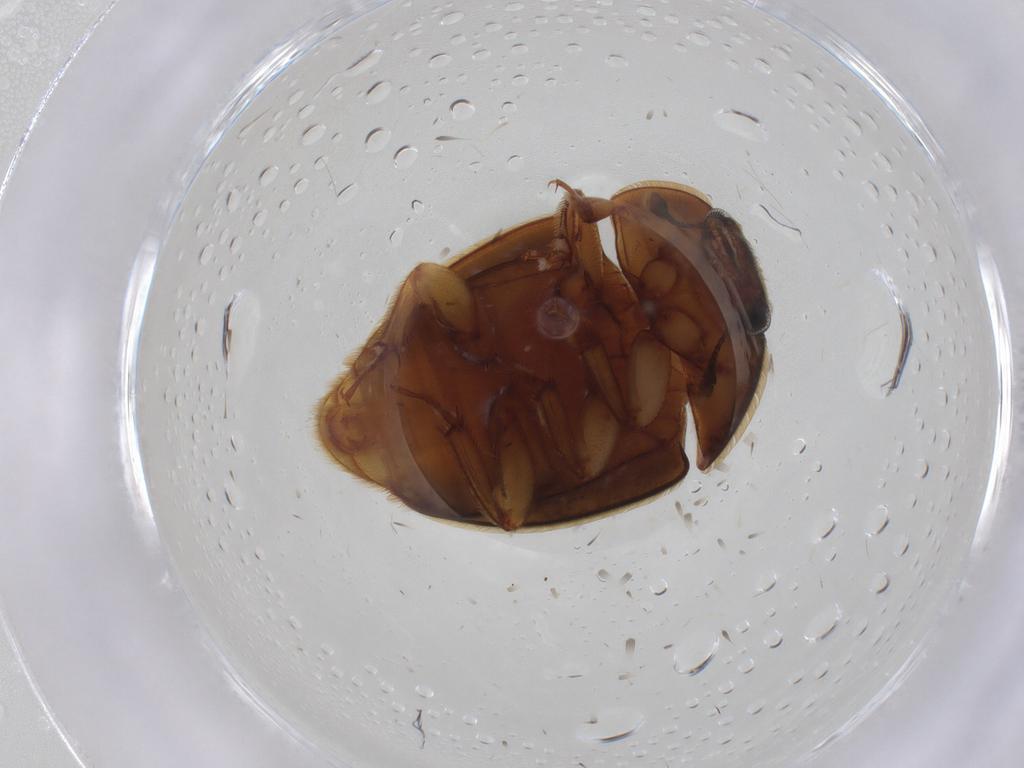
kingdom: Animalia
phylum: Arthropoda
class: Insecta
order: Coleoptera
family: Nitidulidae
